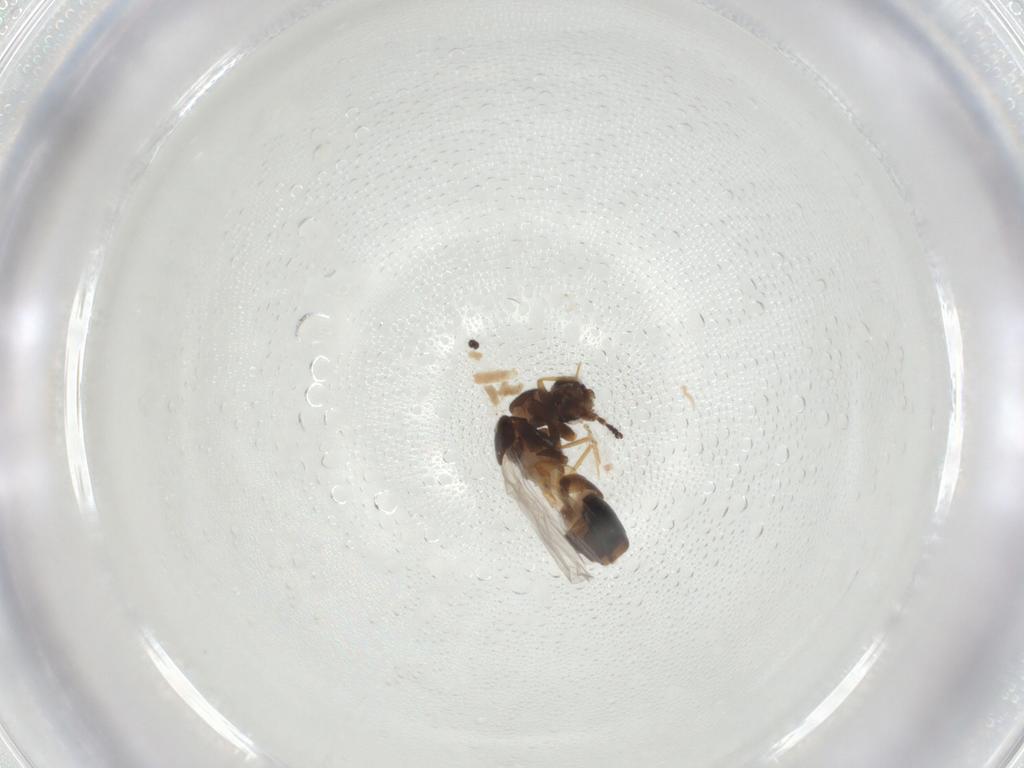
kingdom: Animalia
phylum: Arthropoda
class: Insecta
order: Coleoptera
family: Staphylinidae
